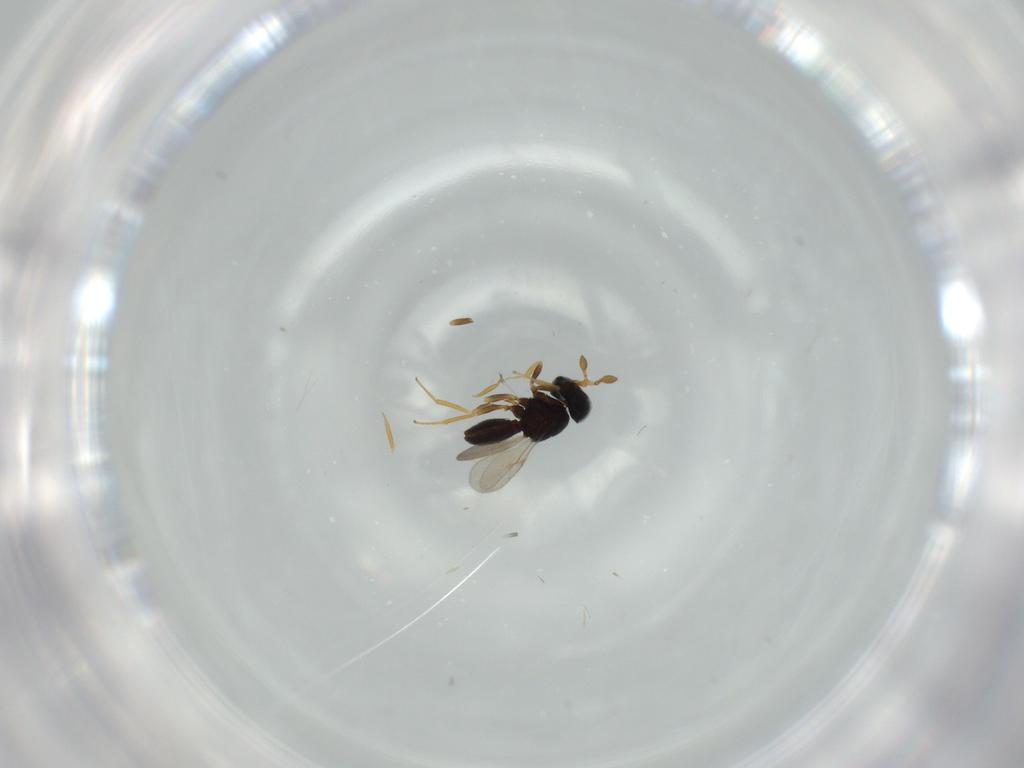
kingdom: Animalia
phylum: Arthropoda
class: Insecta
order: Hymenoptera
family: Scelionidae
